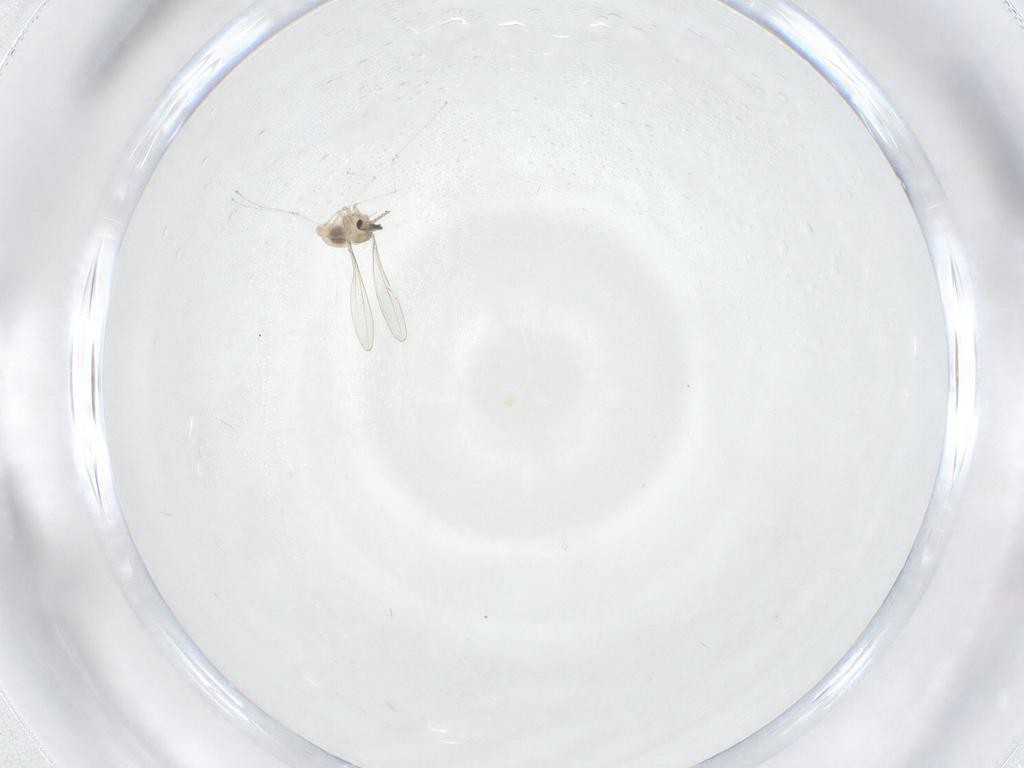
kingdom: Animalia
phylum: Arthropoda
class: Insecta
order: Diptera
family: Cecidomyiidae
